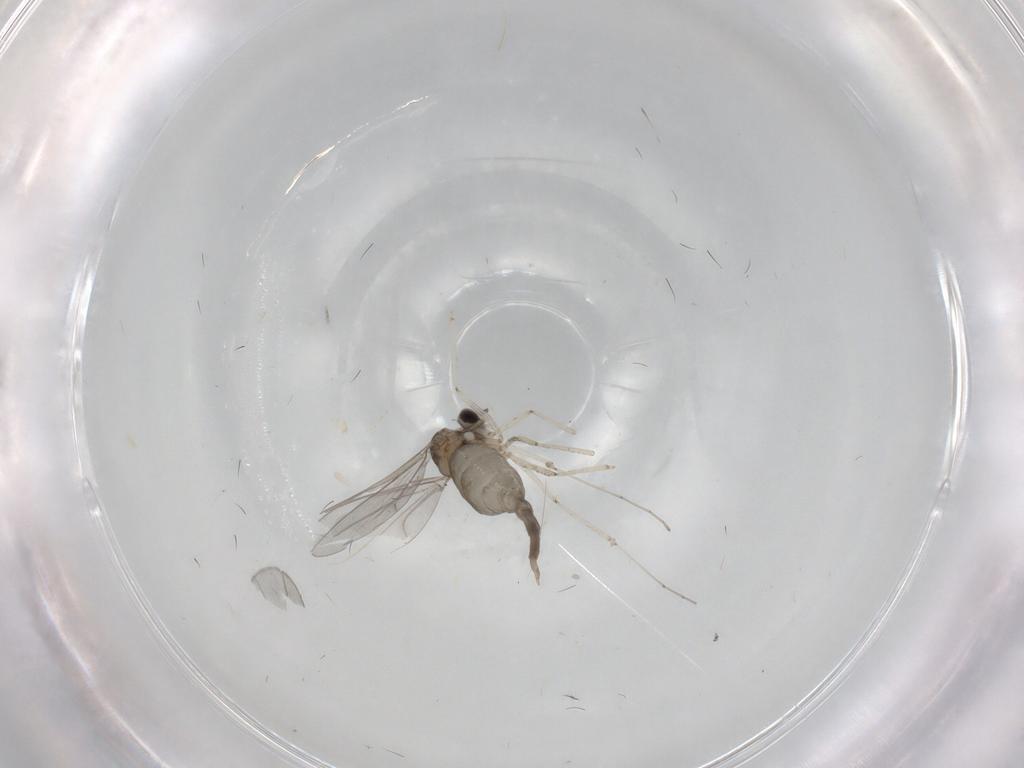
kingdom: Animalia
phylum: Arthropoda
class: Insecta
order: Diptera
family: Cecidomyiidae
